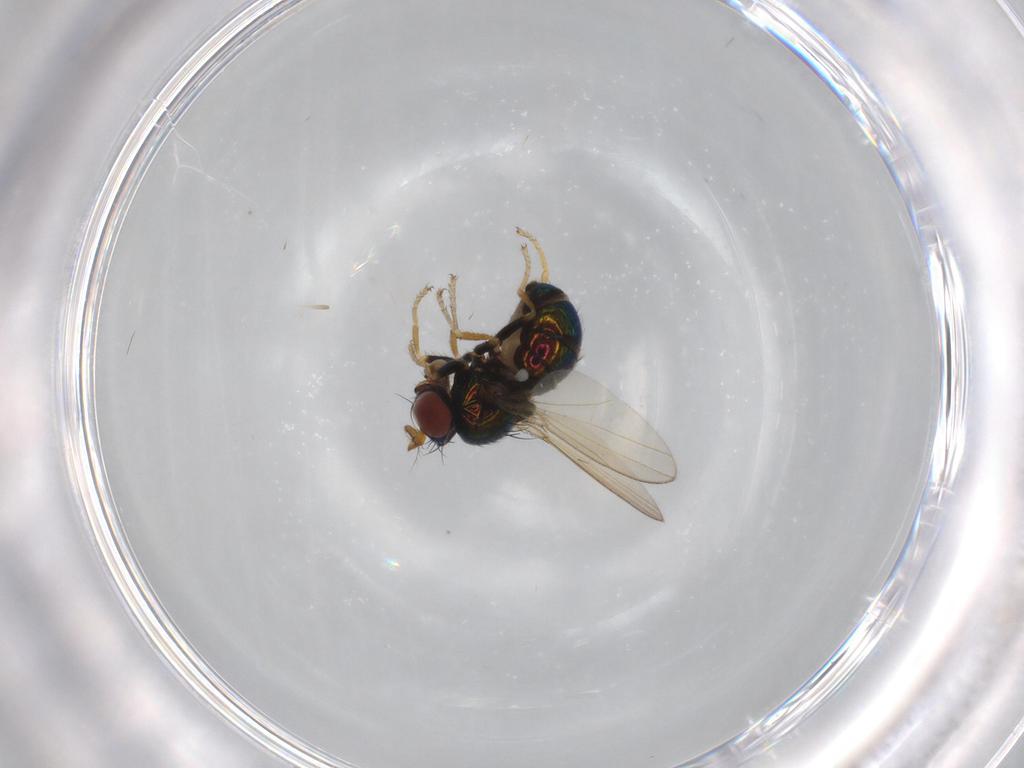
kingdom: Animalia
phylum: Arthropoda
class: Insecta
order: Diptera
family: Ephydridae
